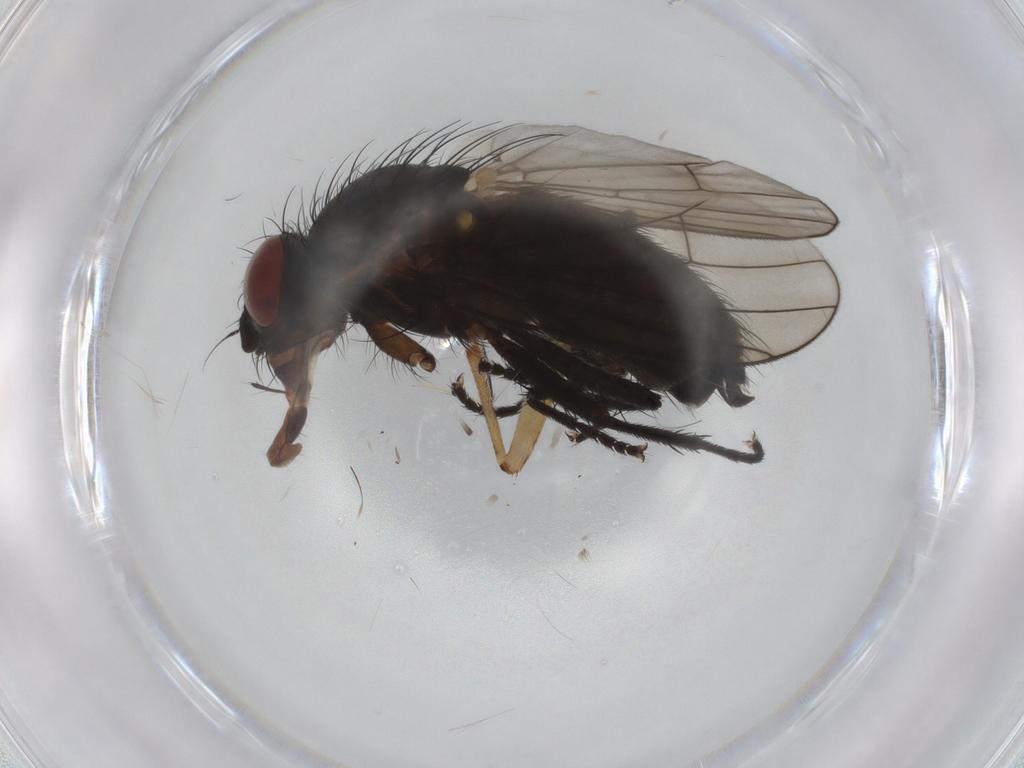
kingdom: Animalia
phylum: Arthropoda
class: Insecta
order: Diptera
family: Anthomyiidae
